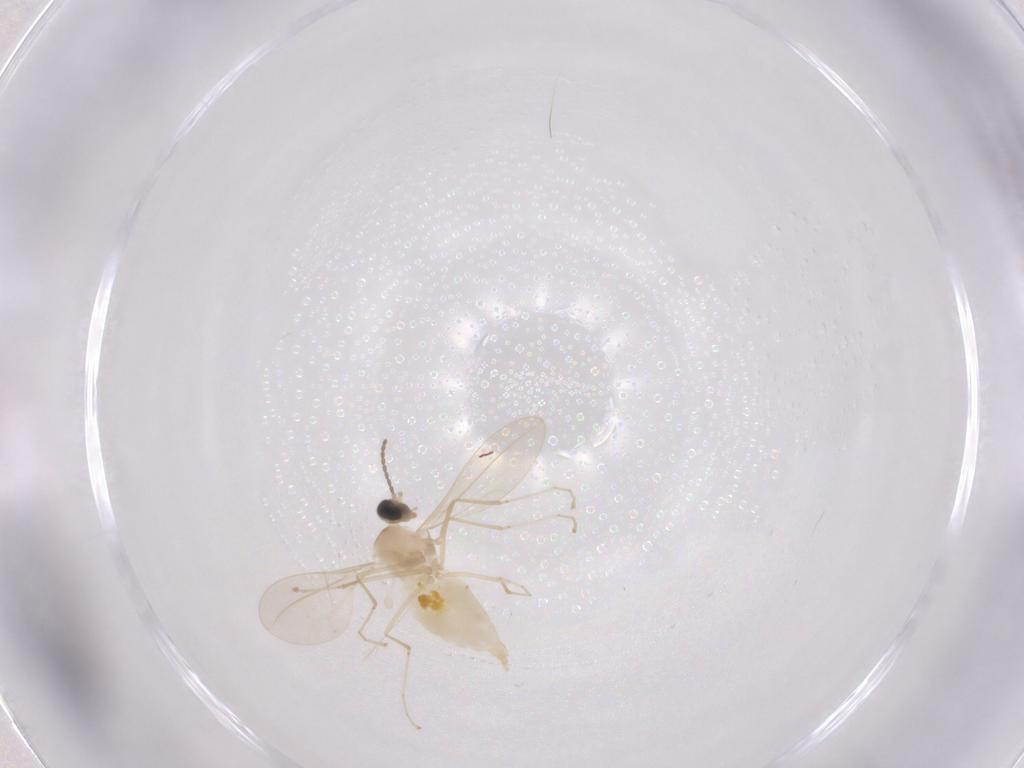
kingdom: Animalia
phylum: Arthropoda
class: Insecta
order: Diptera
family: Cecidomyiidae
